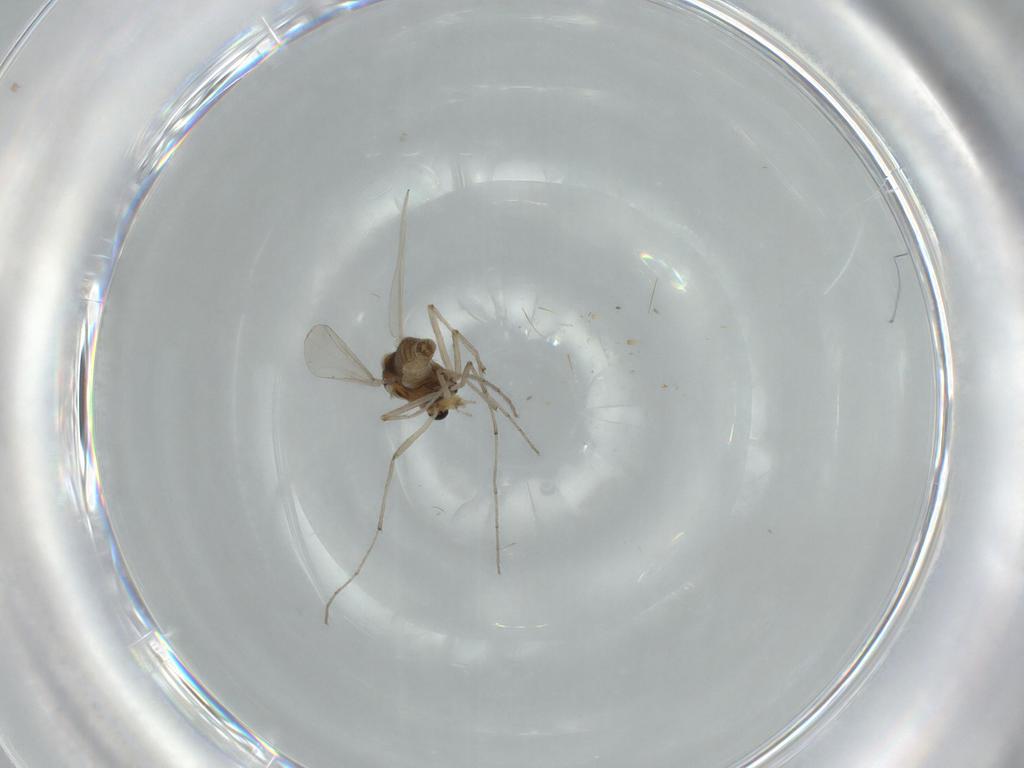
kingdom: Animalia
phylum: Arthropoda
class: Insecta
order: Diptera
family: Chironomidae
